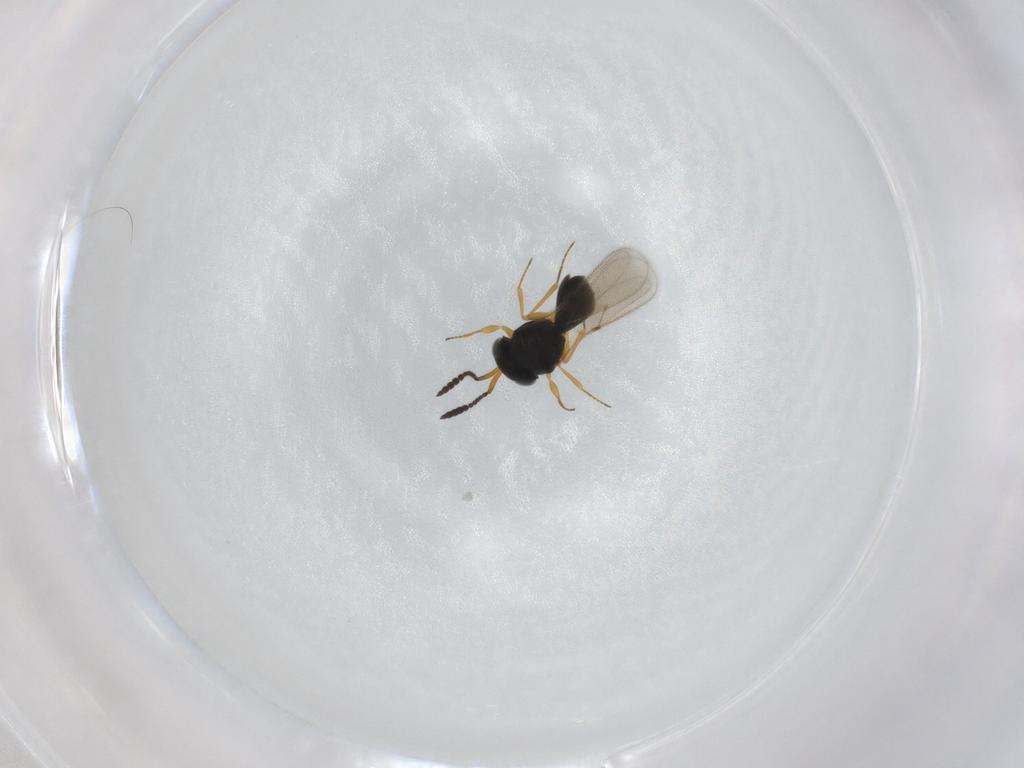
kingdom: Animalia
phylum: Arthropoda
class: Insecta
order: Hymenoptera
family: Scelionidae
